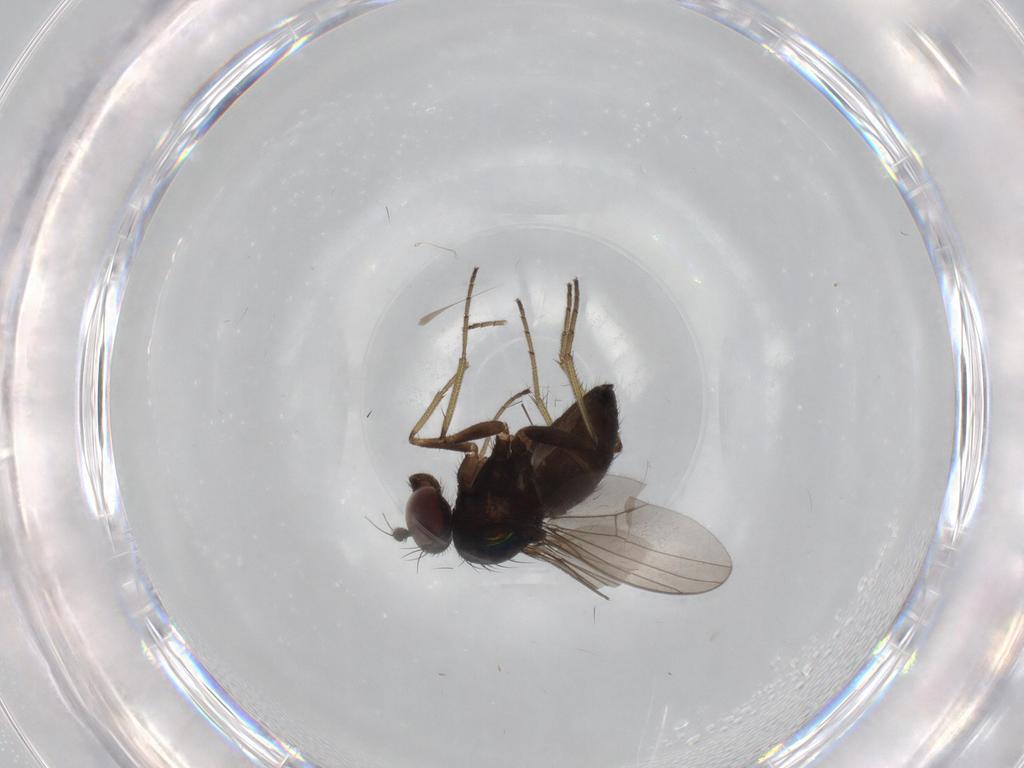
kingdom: Animalia
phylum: Arthropoda
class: Insecta
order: Diptera
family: Dolichopodidae
